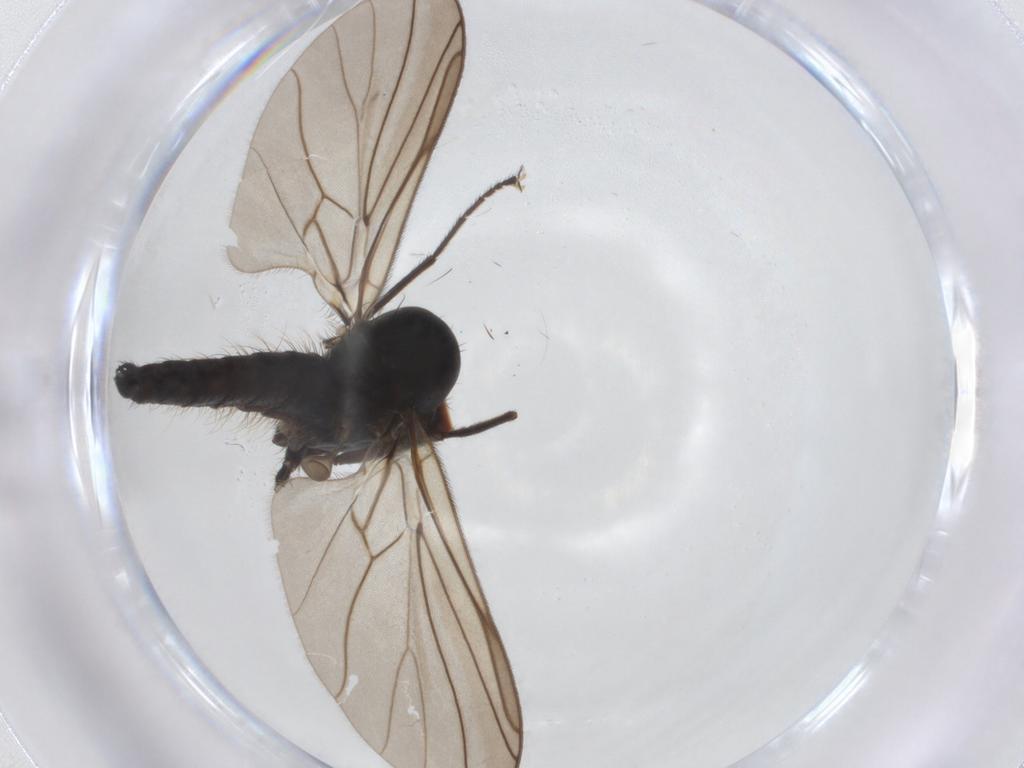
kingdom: Animalia
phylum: Arthropoda
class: Insecta
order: Diptera
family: Hybotidae
